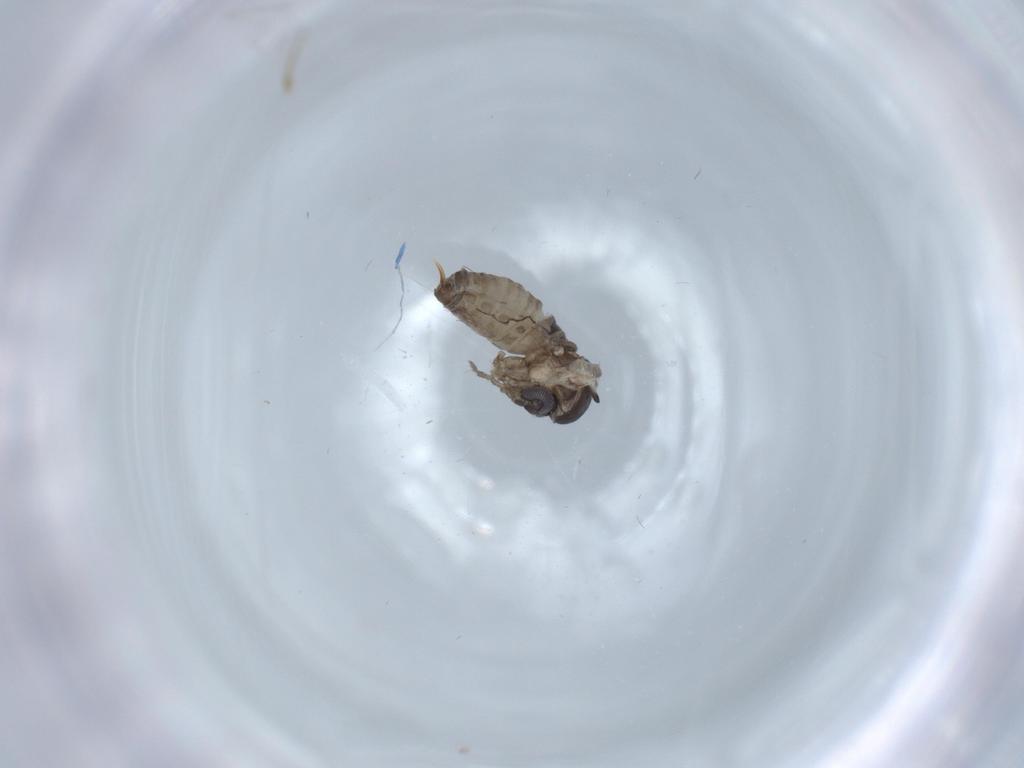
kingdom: Animalia
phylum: Arthropoda
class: Insecta
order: Diptera
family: Psychodidae
